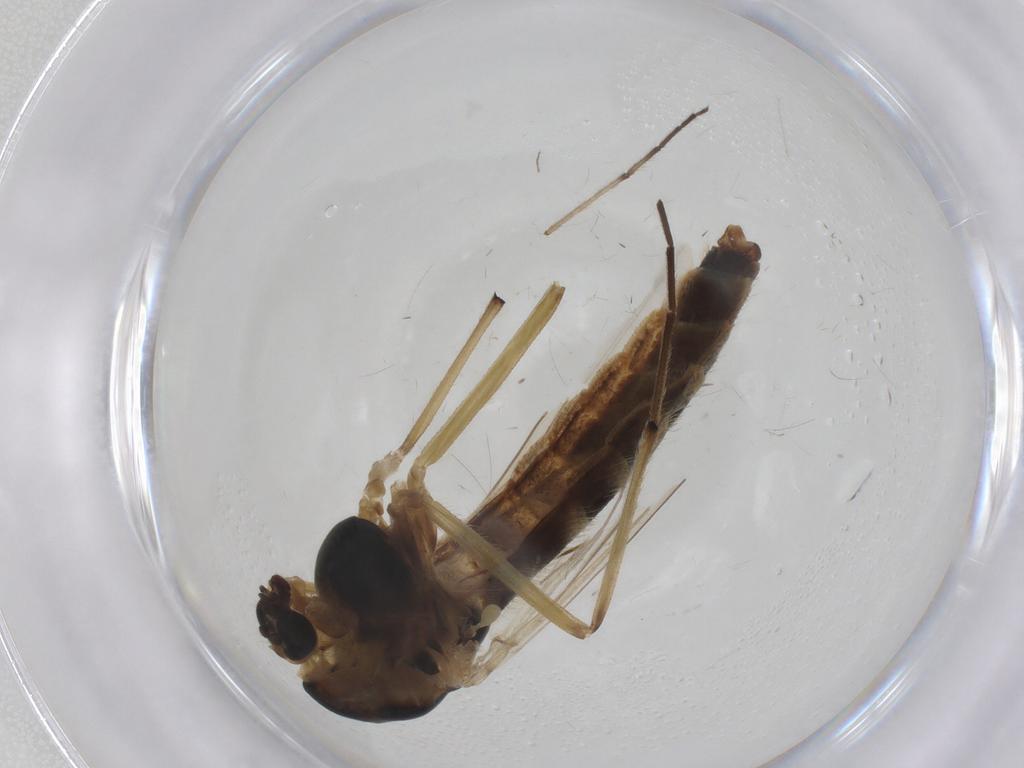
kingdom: Animalia
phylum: Arthropoda
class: Insecta
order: Diptera
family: Chironomidae
